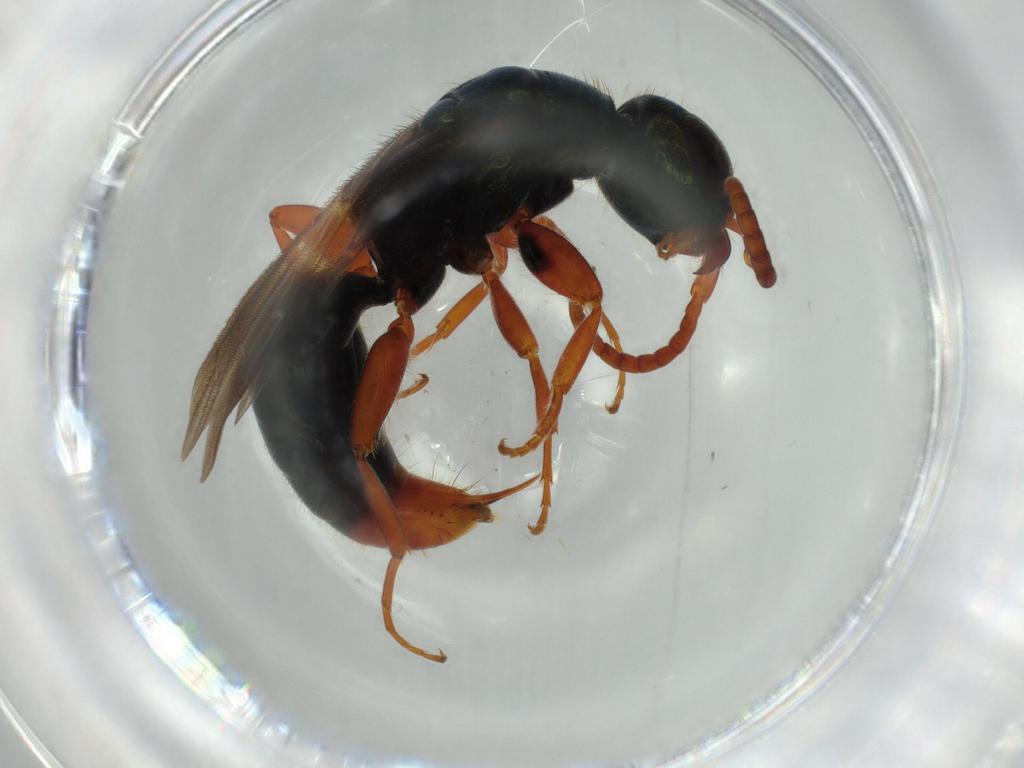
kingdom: Animalia
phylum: Arthropoda
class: Insecta
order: Hymenoptera
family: Bethylidae
